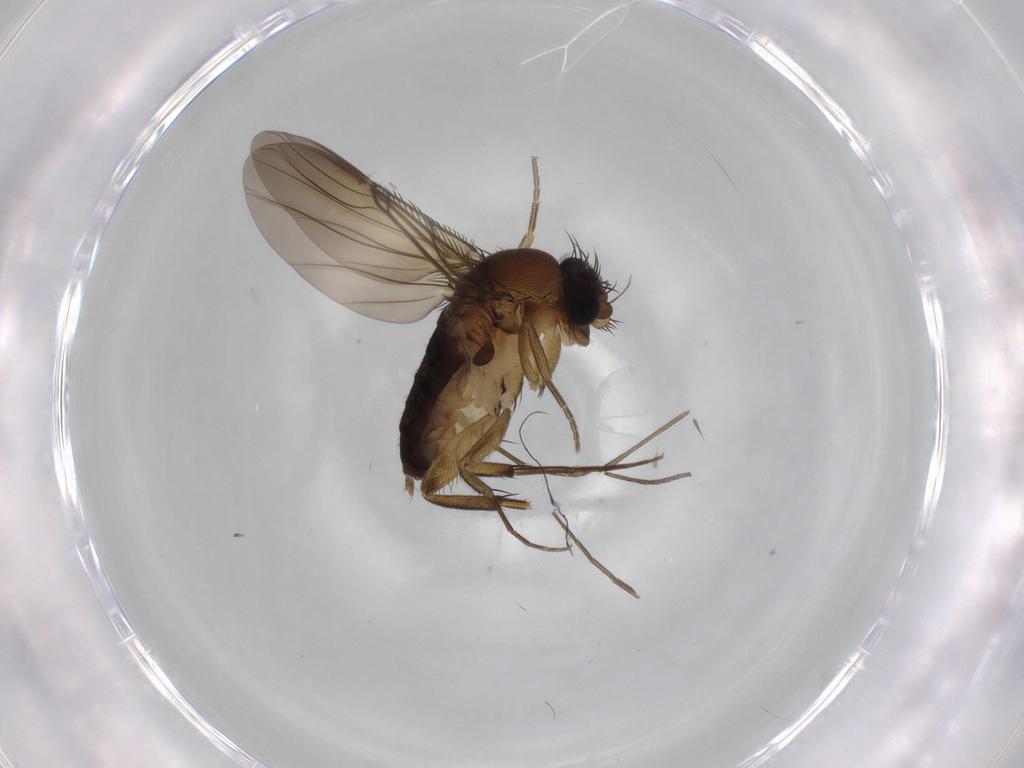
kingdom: Animalia
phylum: Arthropoda
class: Insecta
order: Diptera
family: Phoridae
